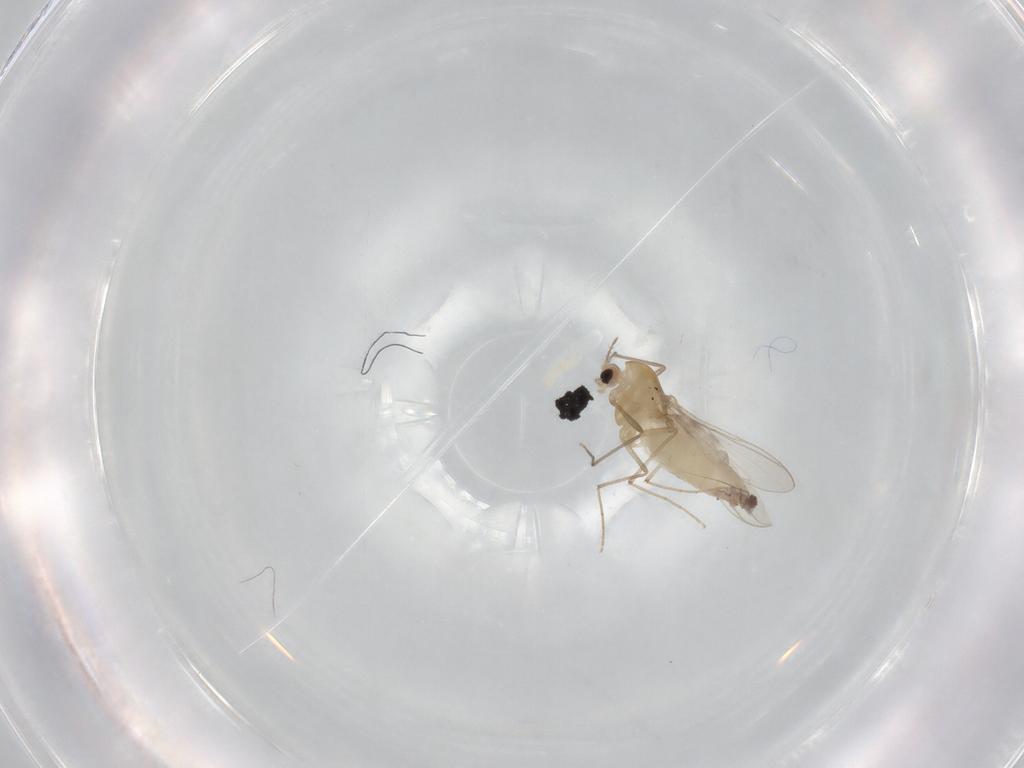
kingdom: Animalia
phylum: Arthropoda
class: Insecta
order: Diptera
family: Chironomidae
